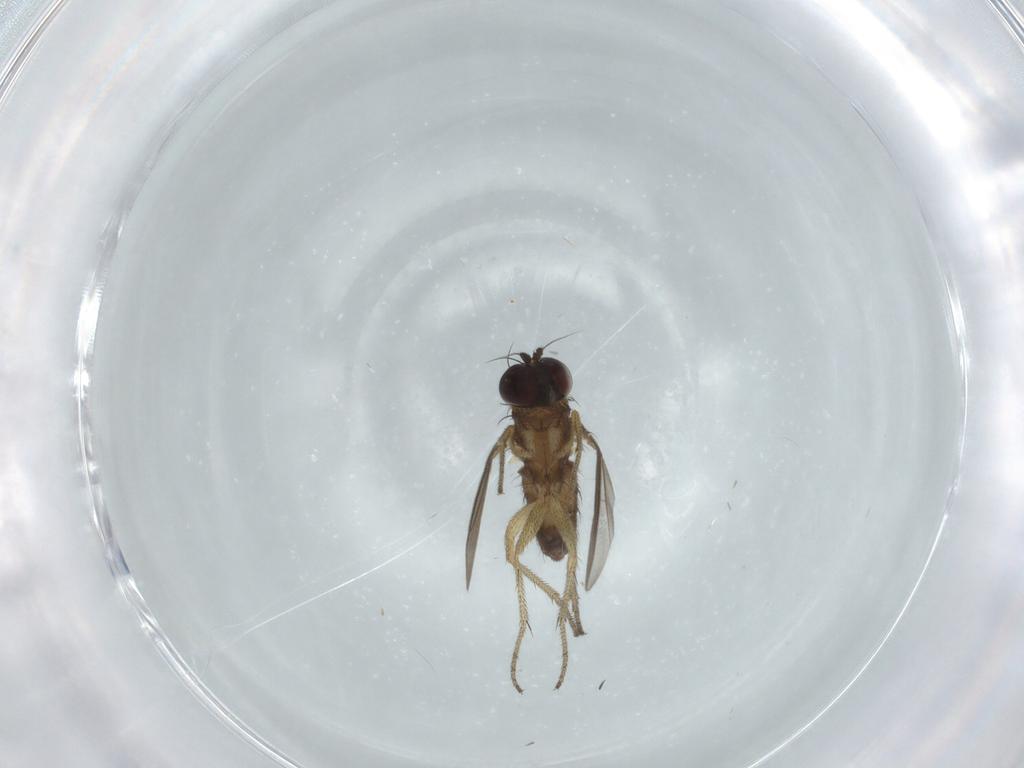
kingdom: Animalia
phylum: Arthropoda
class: Insecta
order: Diptera
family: Dolichopodidae
